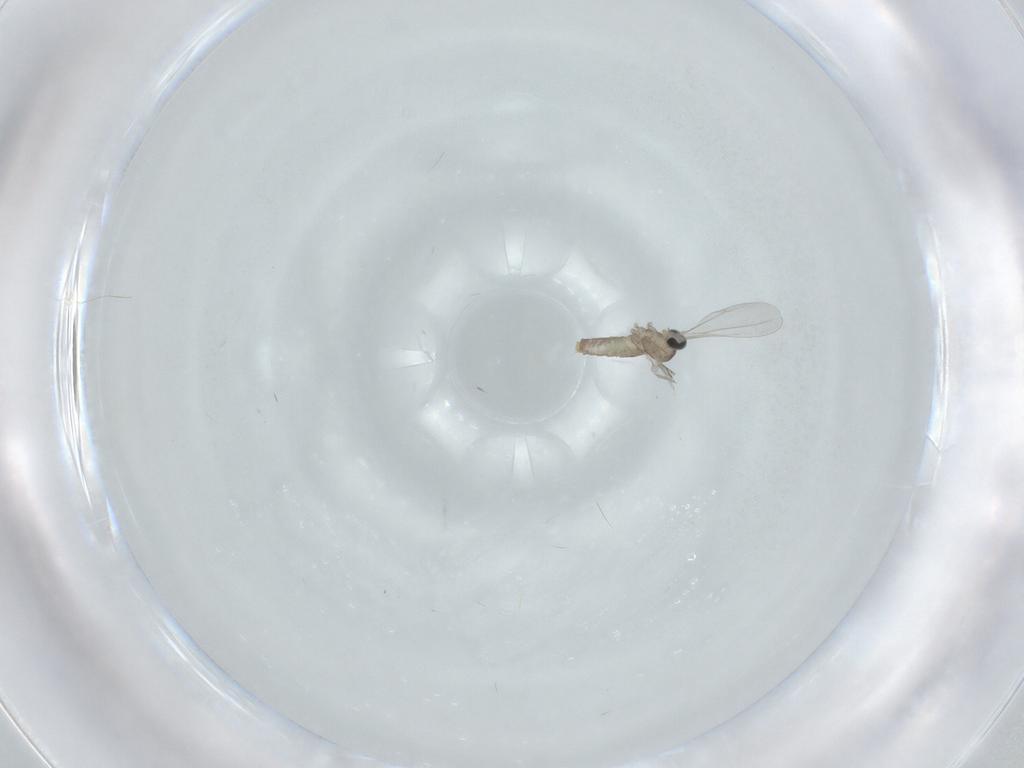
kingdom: Animalia
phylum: Arthropoda
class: Insecta
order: Diptera
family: Cecidomyiidae
